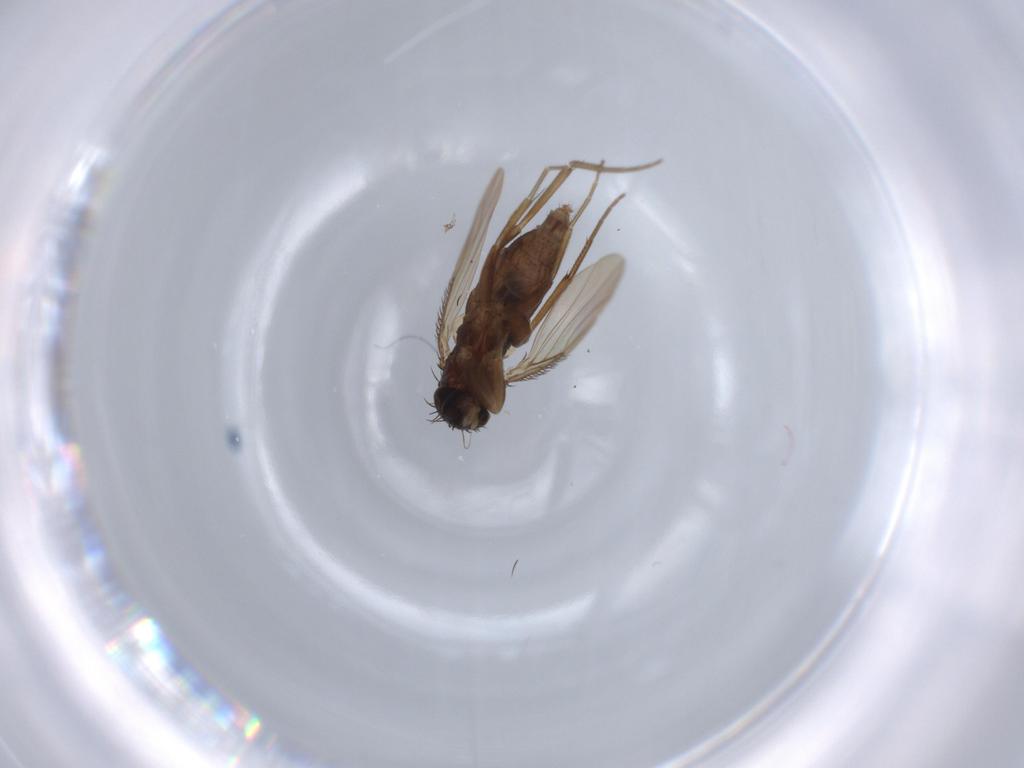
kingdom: Animalia
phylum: Arthropoda
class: Insecta
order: Diptera
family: Phoridae
